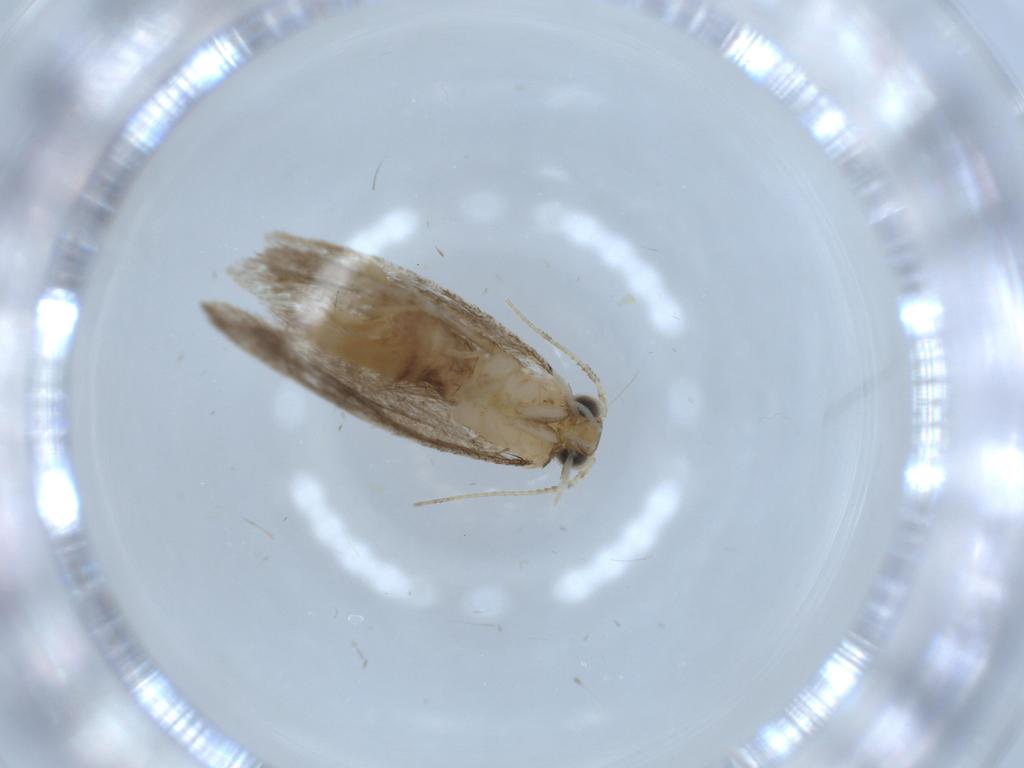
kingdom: Animalia
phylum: Arthropoda
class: Insecta
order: Lepidoptera
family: Tineidae
